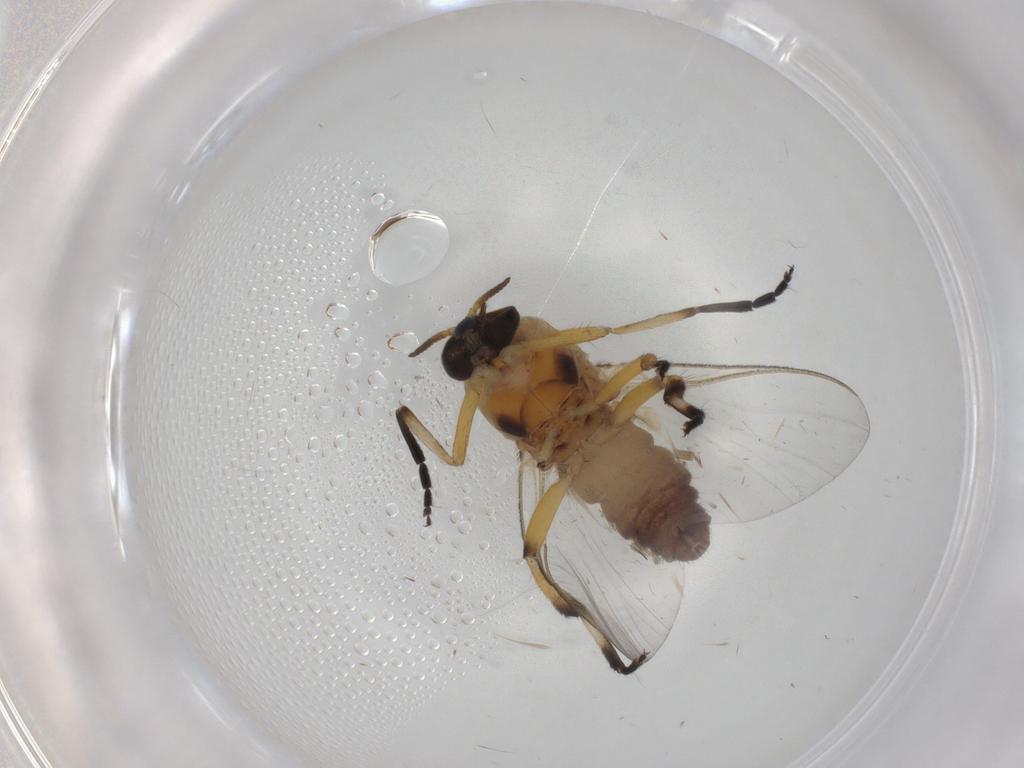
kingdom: Animalia
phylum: Arthropoda
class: Insecta
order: Diptera
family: Simuliidae
